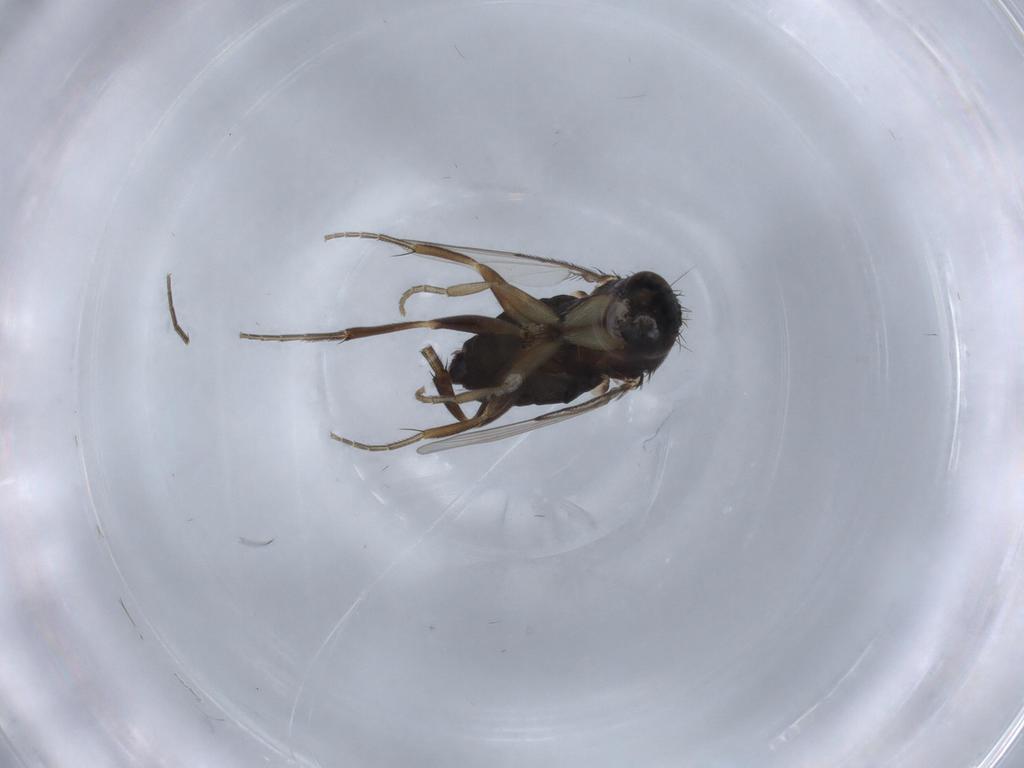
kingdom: Animalia
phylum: Arthropoda
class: Insecta
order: Diptera
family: Phoridae
